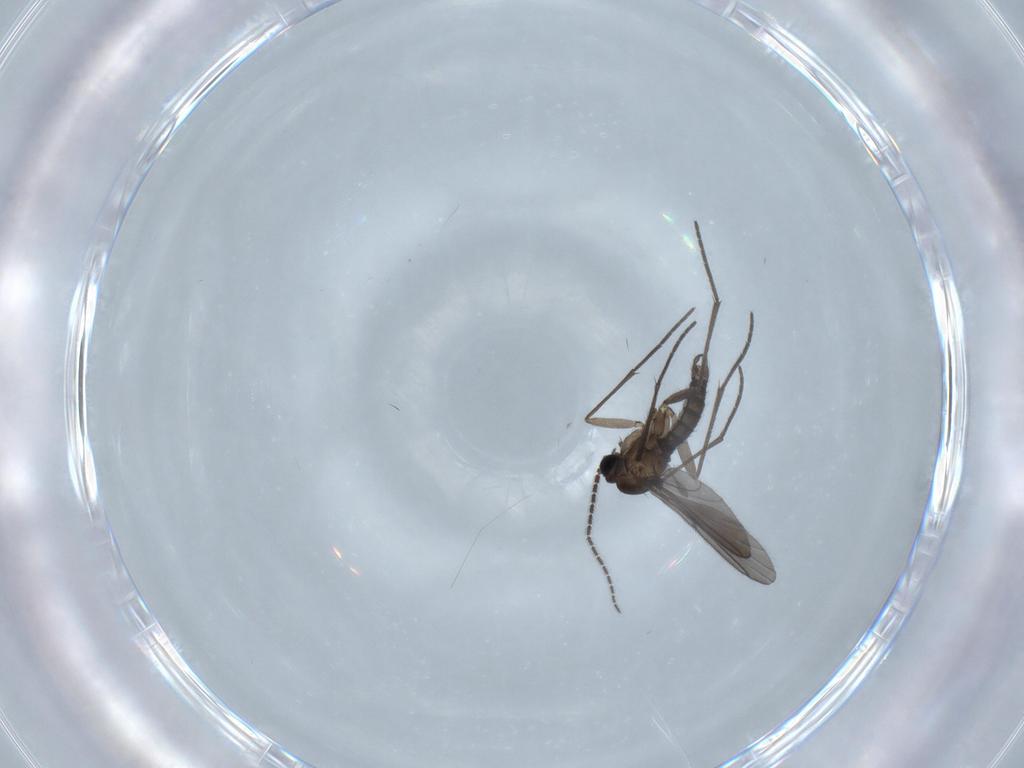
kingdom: Animalia
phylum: Arthropoda
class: Insecta
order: Diptera
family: Sciaridae
